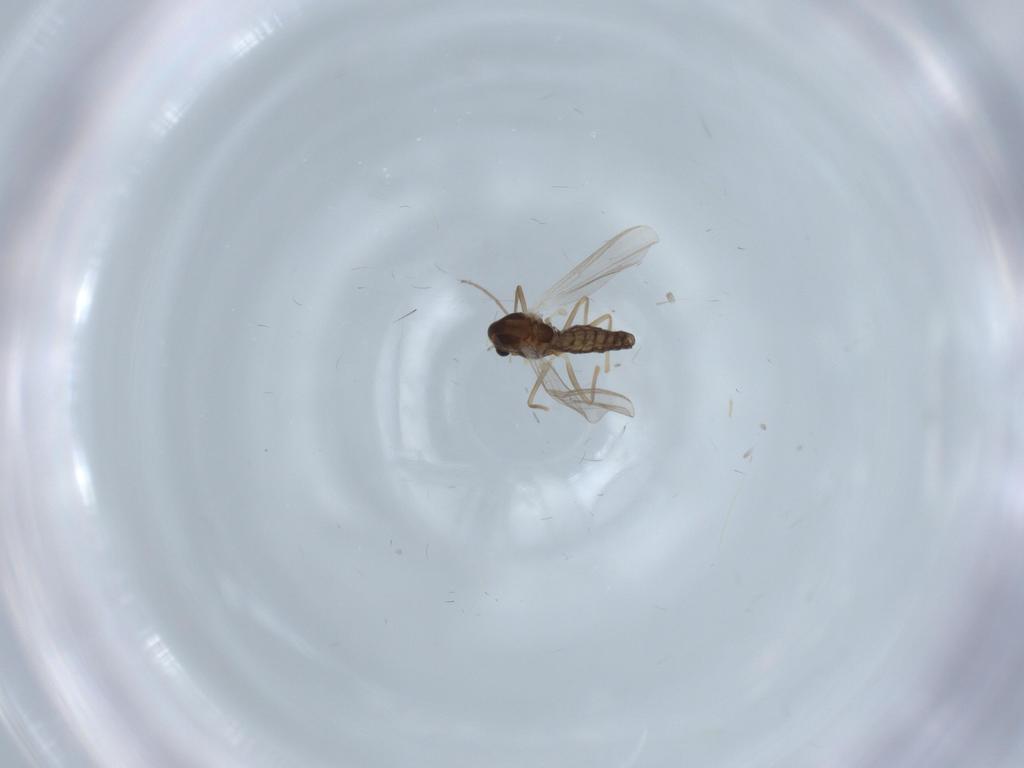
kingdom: Animalia
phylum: Arthropoda
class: Insecta
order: Diptera
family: Chironomidae
